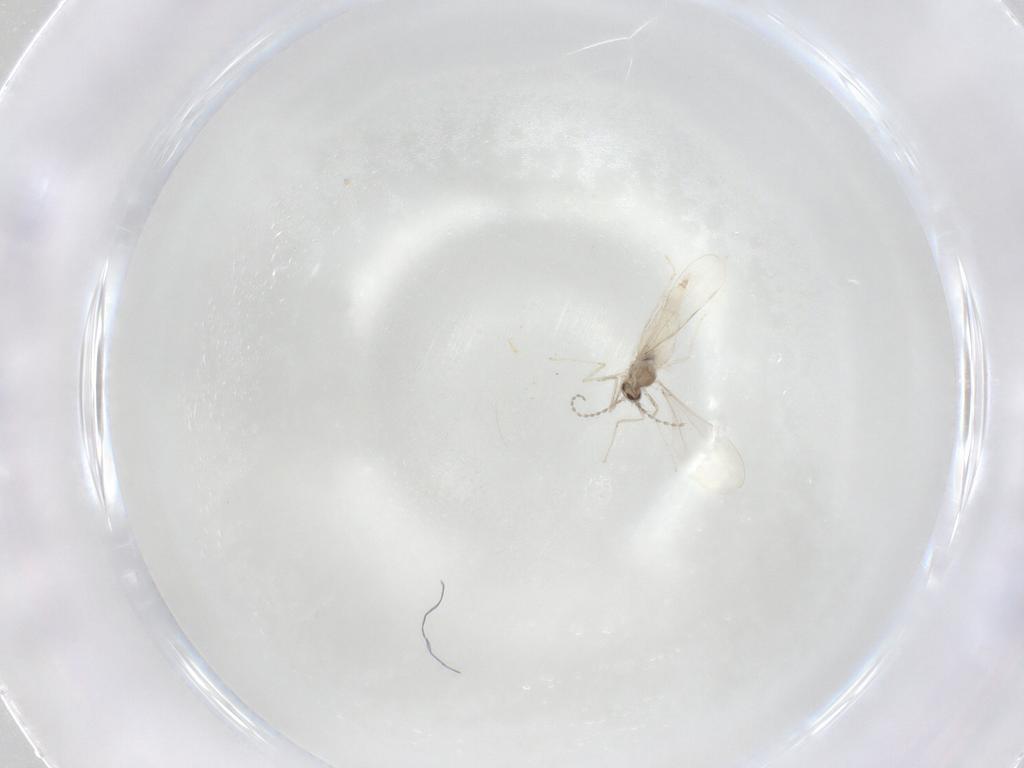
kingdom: Animalia
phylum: Arthropoda
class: Insecta
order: Diptera
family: Cecidomyiidae
